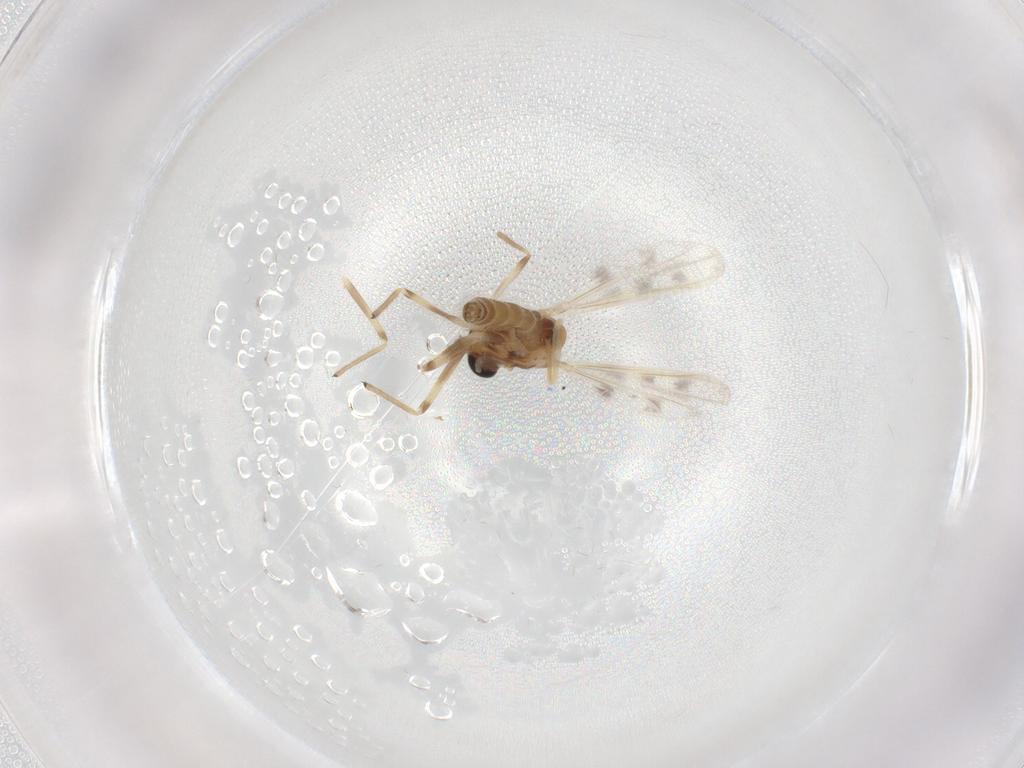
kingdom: Animalia
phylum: Arthropoda
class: Insecta
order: Diptera
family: Chironomidae
